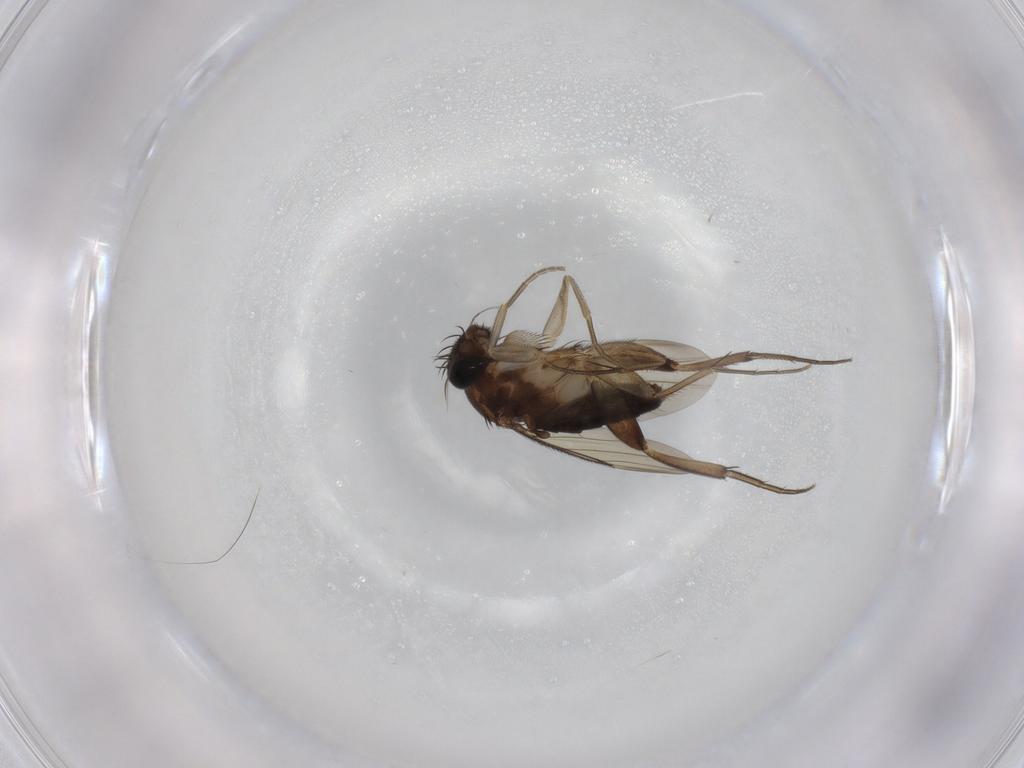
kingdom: Animalia
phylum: Arthropoda
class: Insecta
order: Diptera
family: Phoridae
